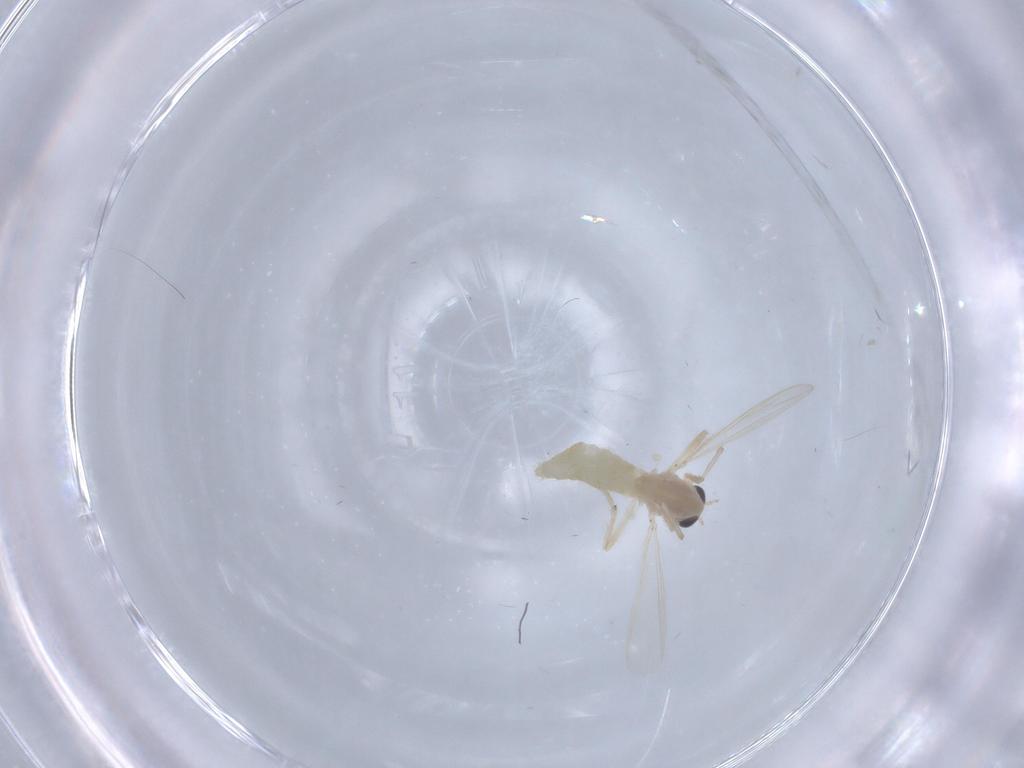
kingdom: Animalia
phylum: Arthropoda
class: Insecta
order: Diptera
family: Chironomidae
